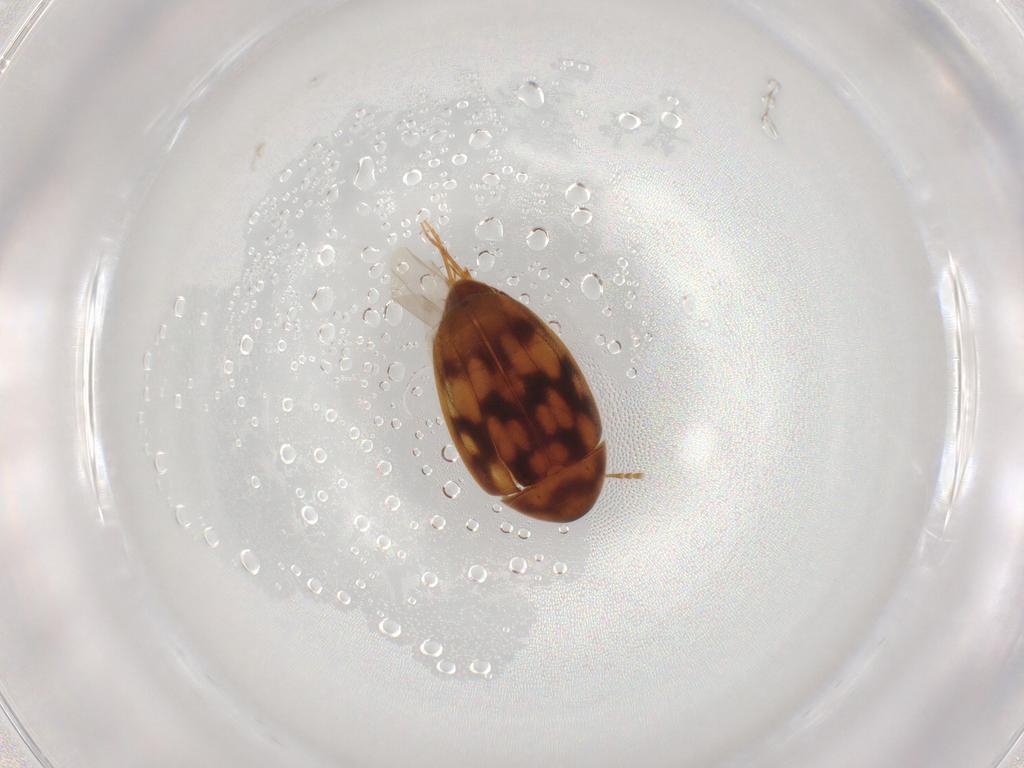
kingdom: Animalia
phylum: Arthropoda
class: Insecta
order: Coleoptera
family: Mycetophagidae
